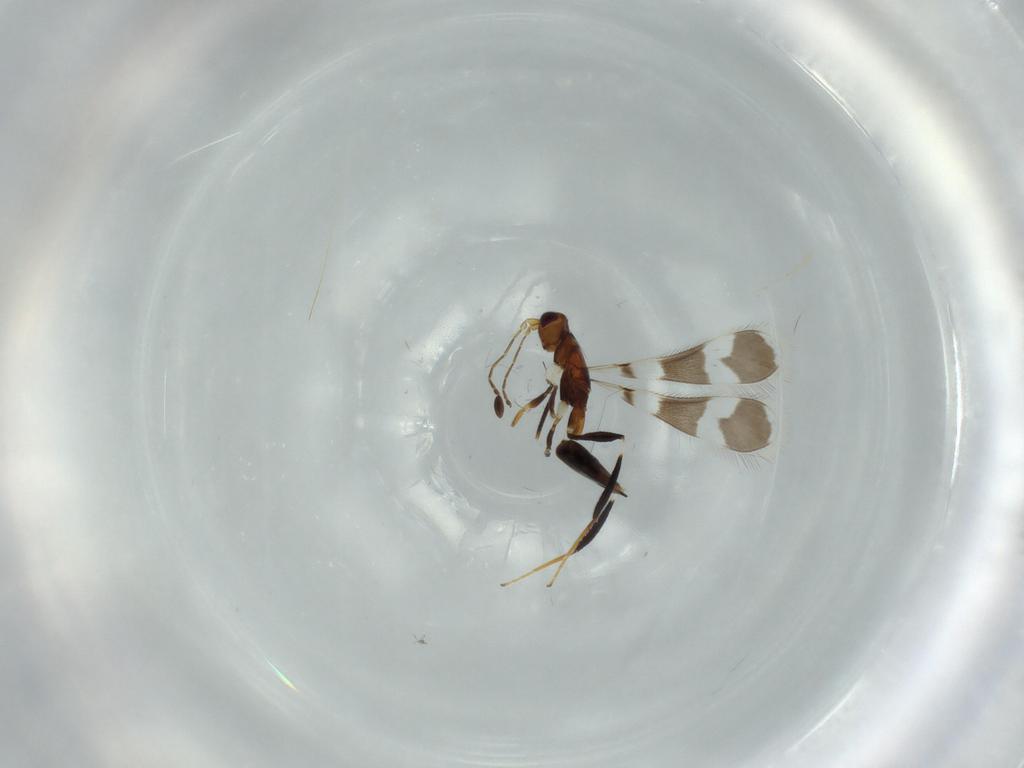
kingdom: Animalia
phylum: Arthropoda
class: Insecta
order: Hymenoptera
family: Mymaridae
